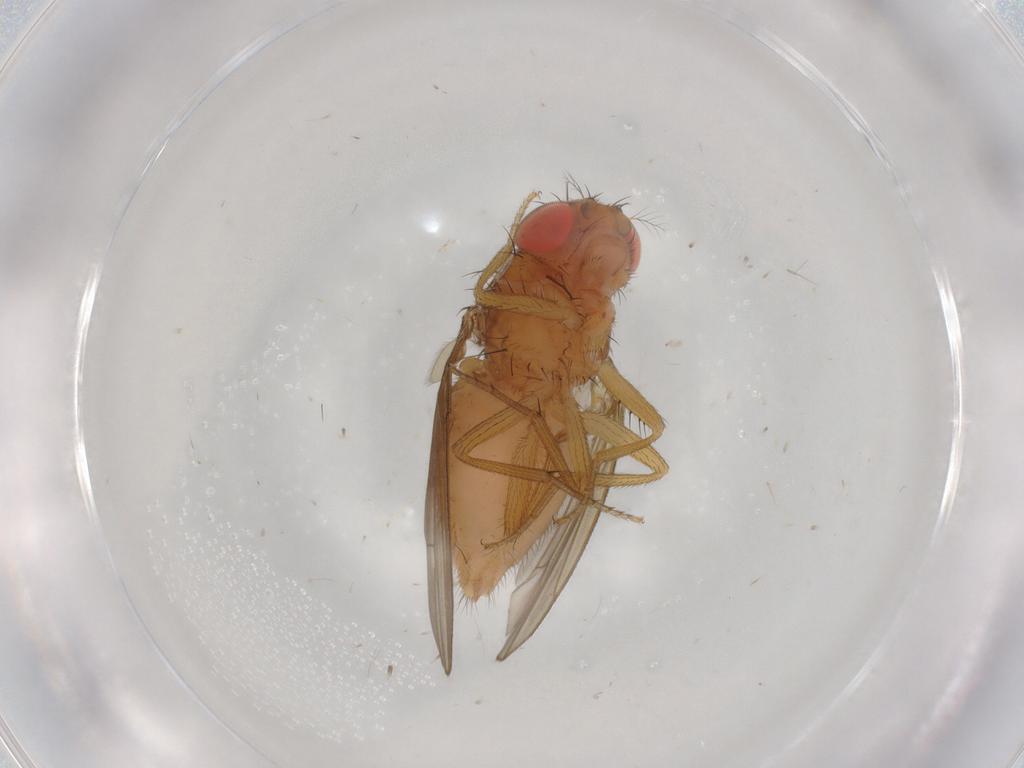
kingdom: Animalia
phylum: Arthropoda
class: Insecta
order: Diptera
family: Drosophilidae
